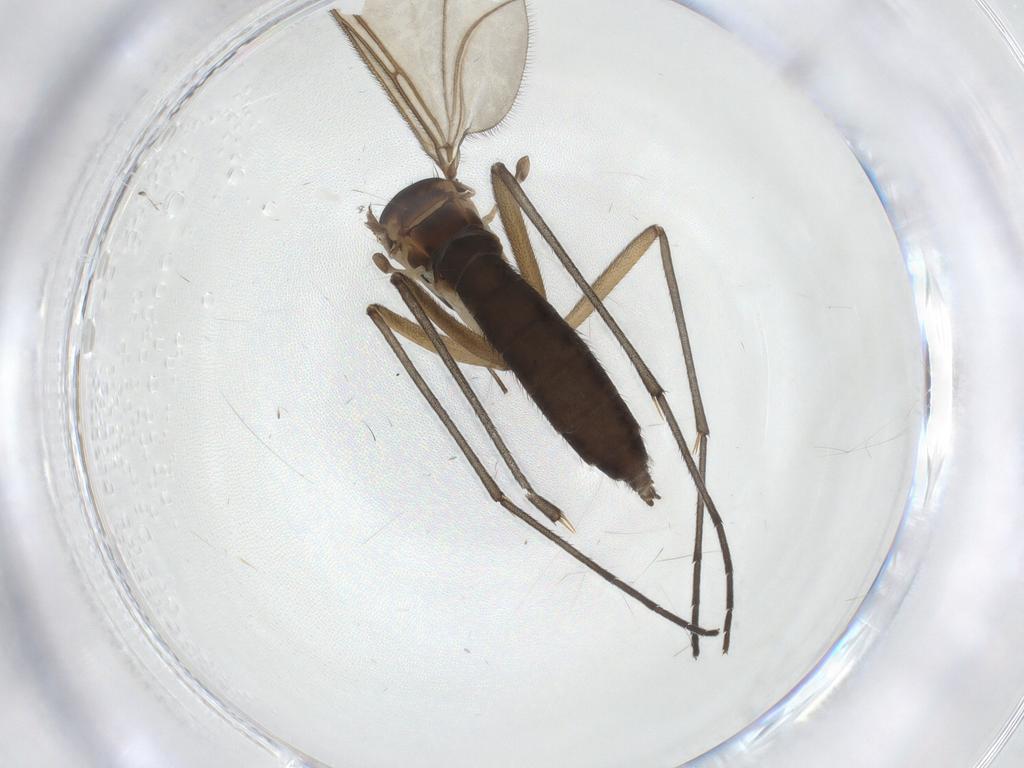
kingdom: Animalia
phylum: Arthropoda
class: Insecta
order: Diptera
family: Sciaridae
